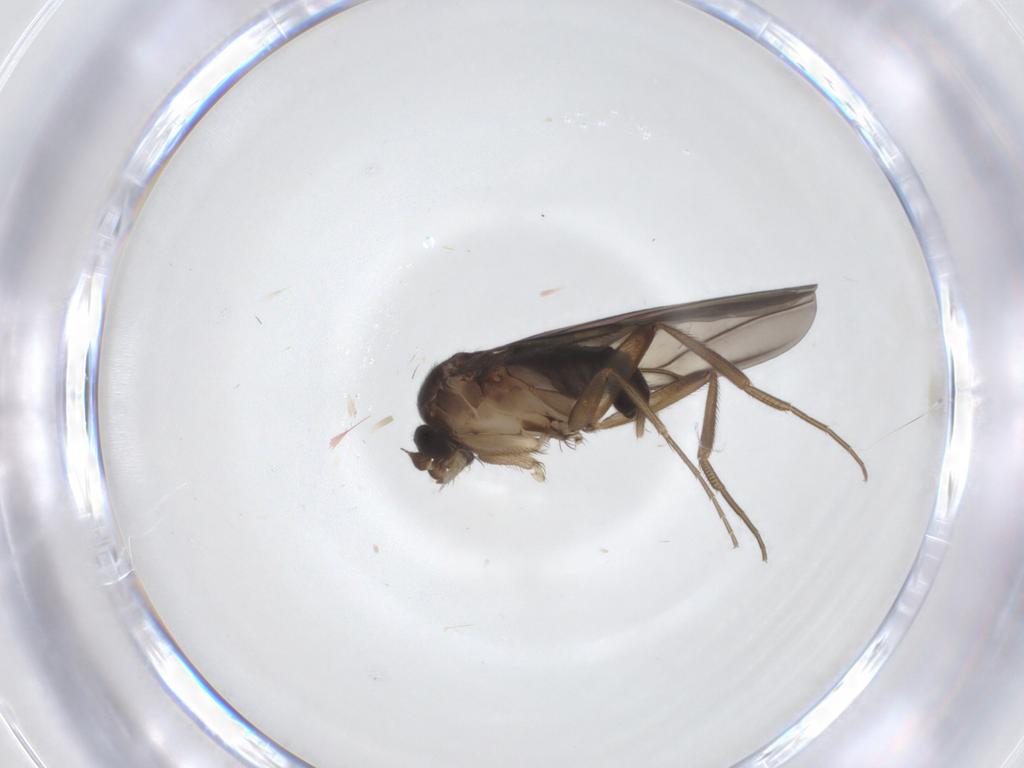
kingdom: Animalia
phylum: Arthropoda
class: Insecta
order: Diptera
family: Phoridae
